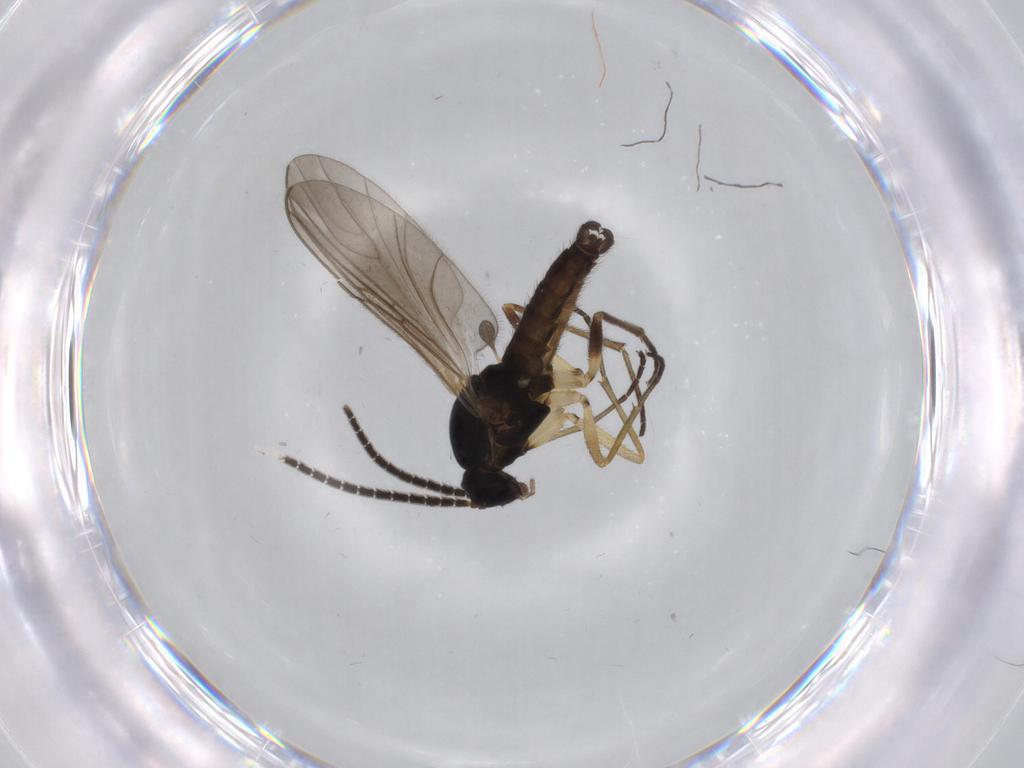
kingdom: Animalia
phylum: Arthropoda
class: Insecta
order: Diptera
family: Sciaridae
